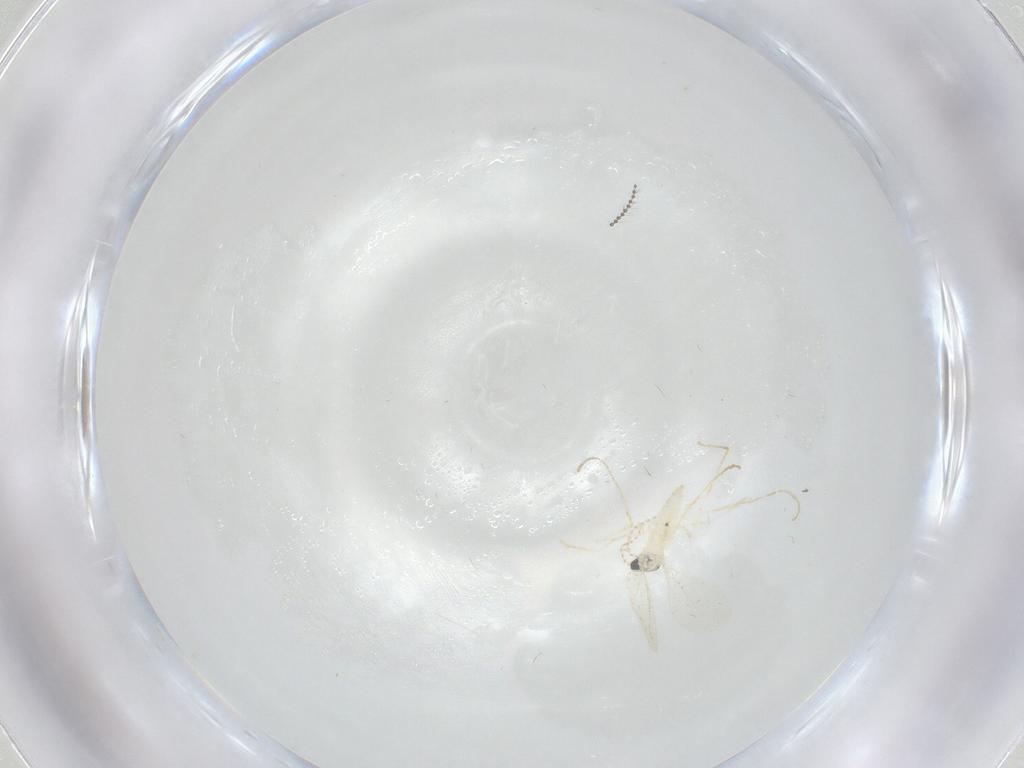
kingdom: Animalia
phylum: Arthropoda
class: Insecta
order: Diptera
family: Cecidomyiidae
